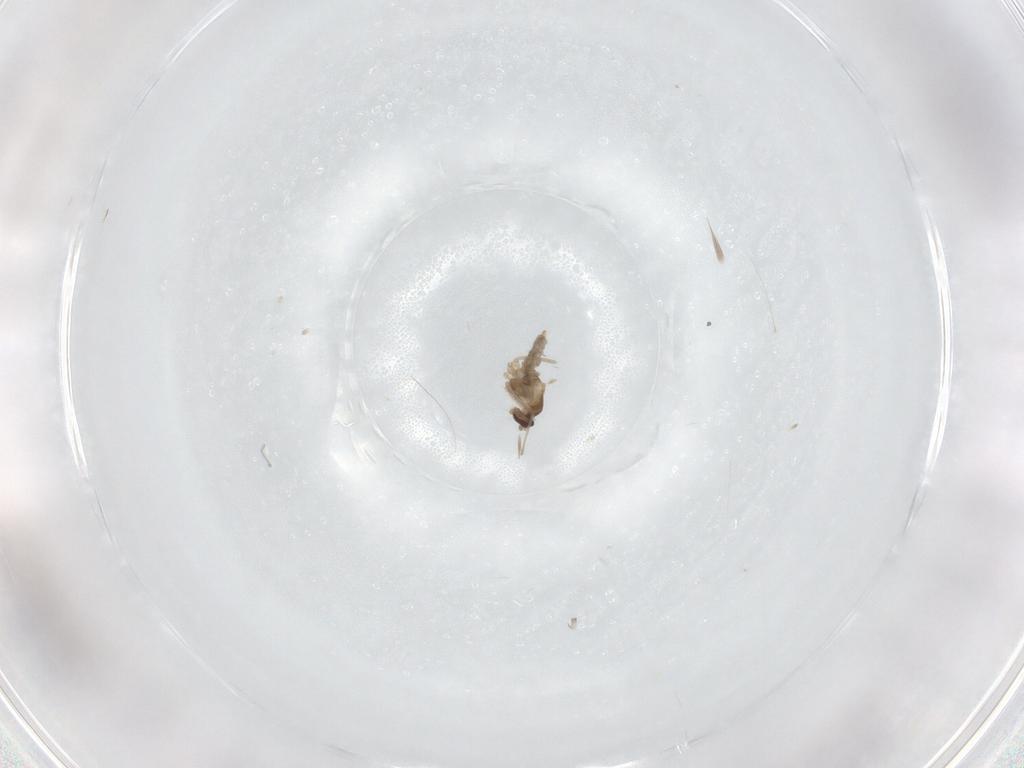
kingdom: Animalia
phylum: Arthropoda
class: Insecta
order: Diptera
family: Cecidomyiidae
